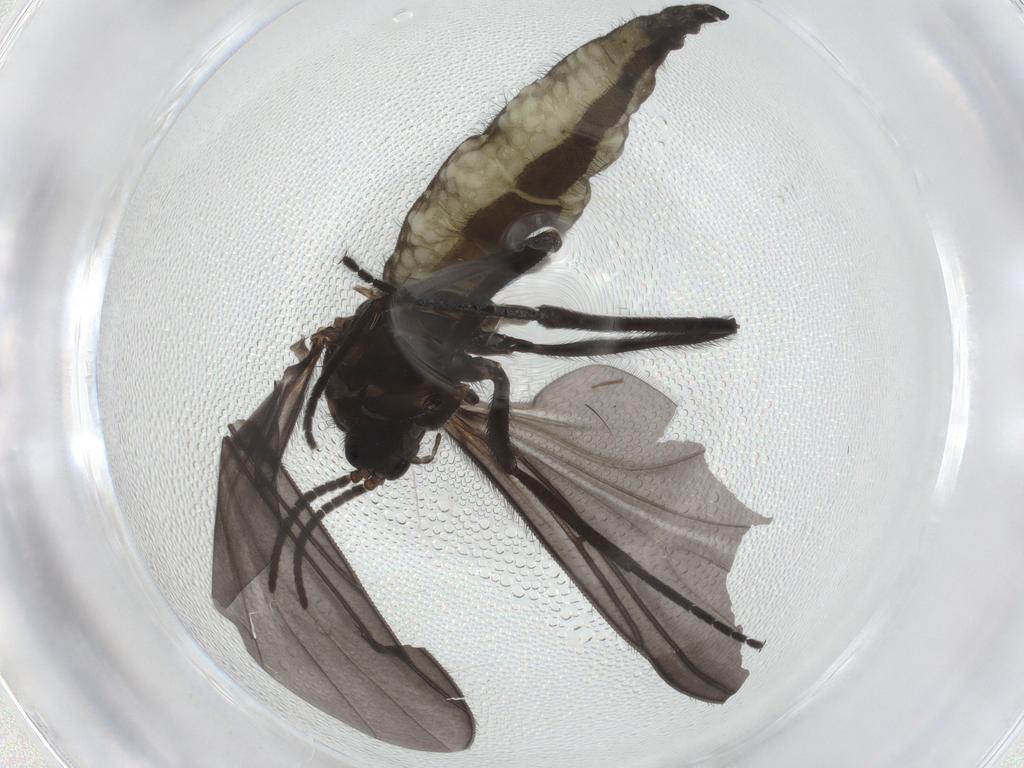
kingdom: Animalia
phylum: Arthropoda
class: Insecta
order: Diptera
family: Sciaridae
